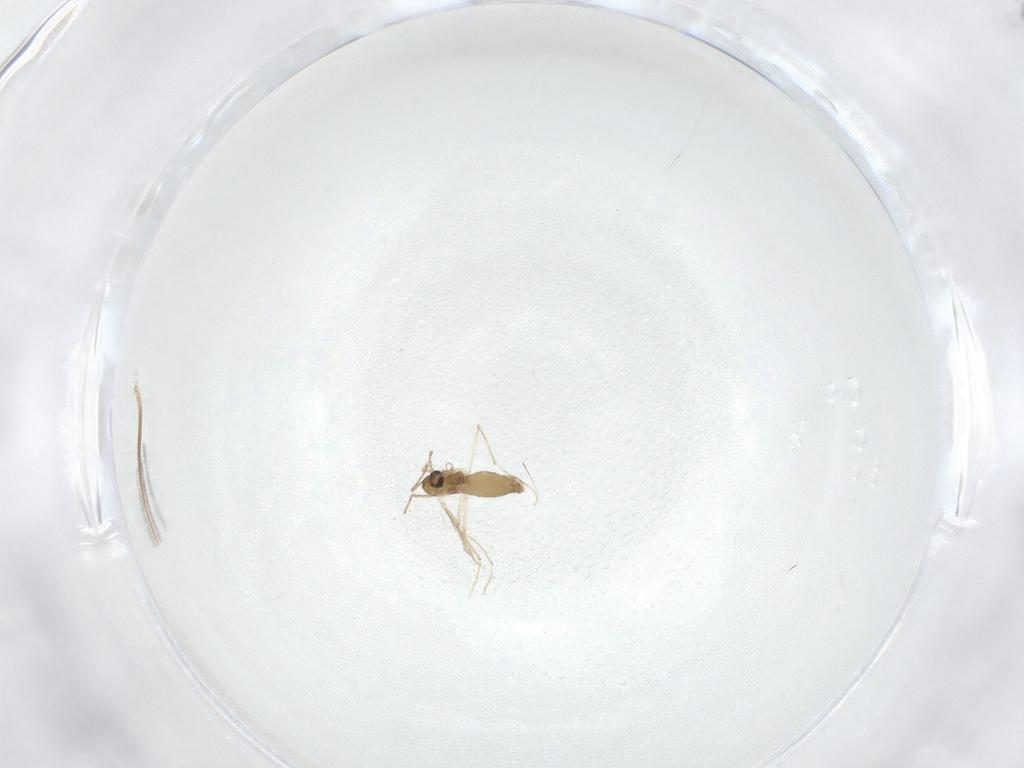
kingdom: Animalia
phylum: Arthropoda
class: Insecta
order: Diptera
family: Chironomidae
